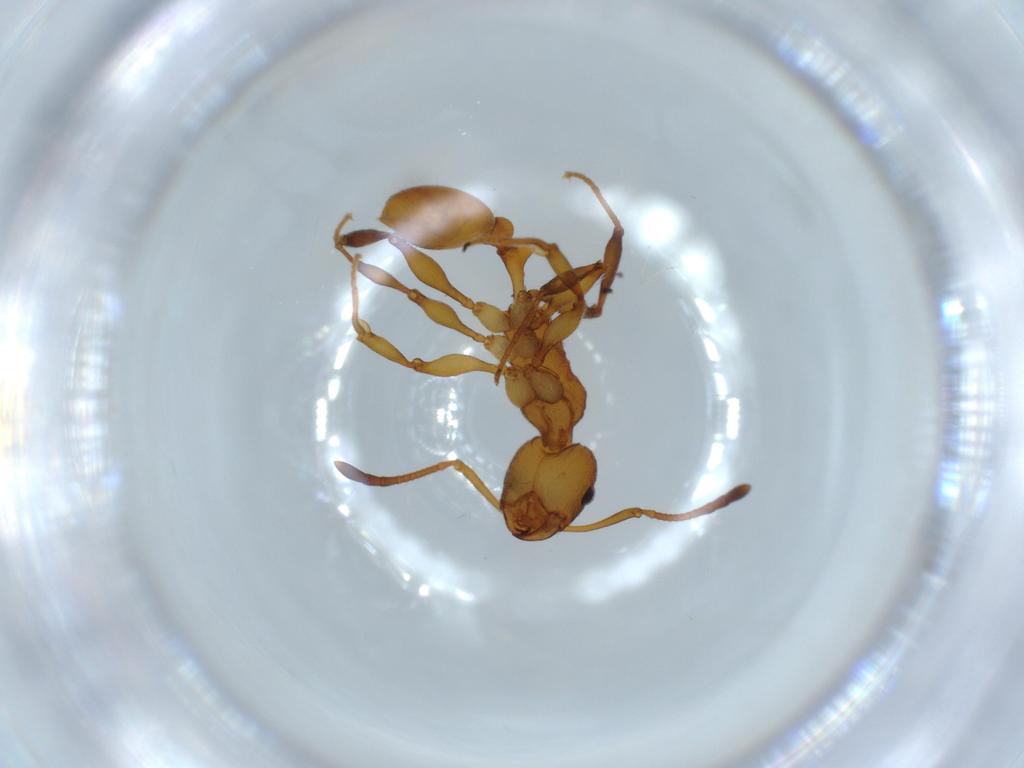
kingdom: Animalia
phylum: Arthropoda
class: Insecta
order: Hymenoptera
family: Formicidae
